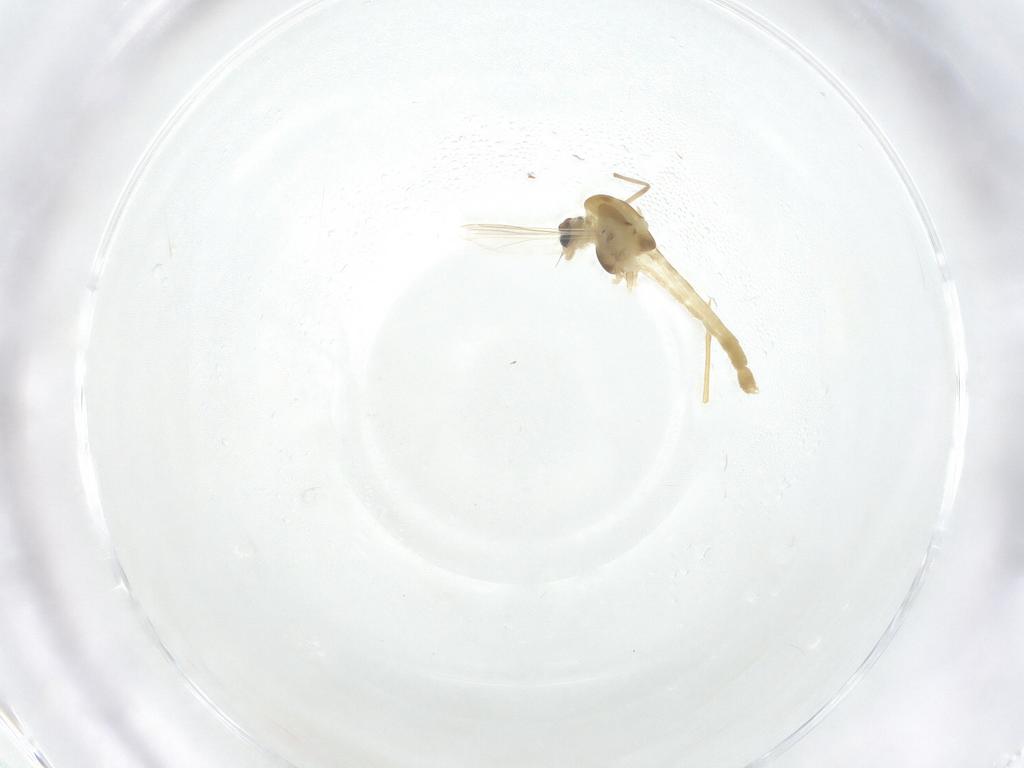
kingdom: Animalia
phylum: Arthropoda
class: Insecta
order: Diptera
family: Chironomidae
